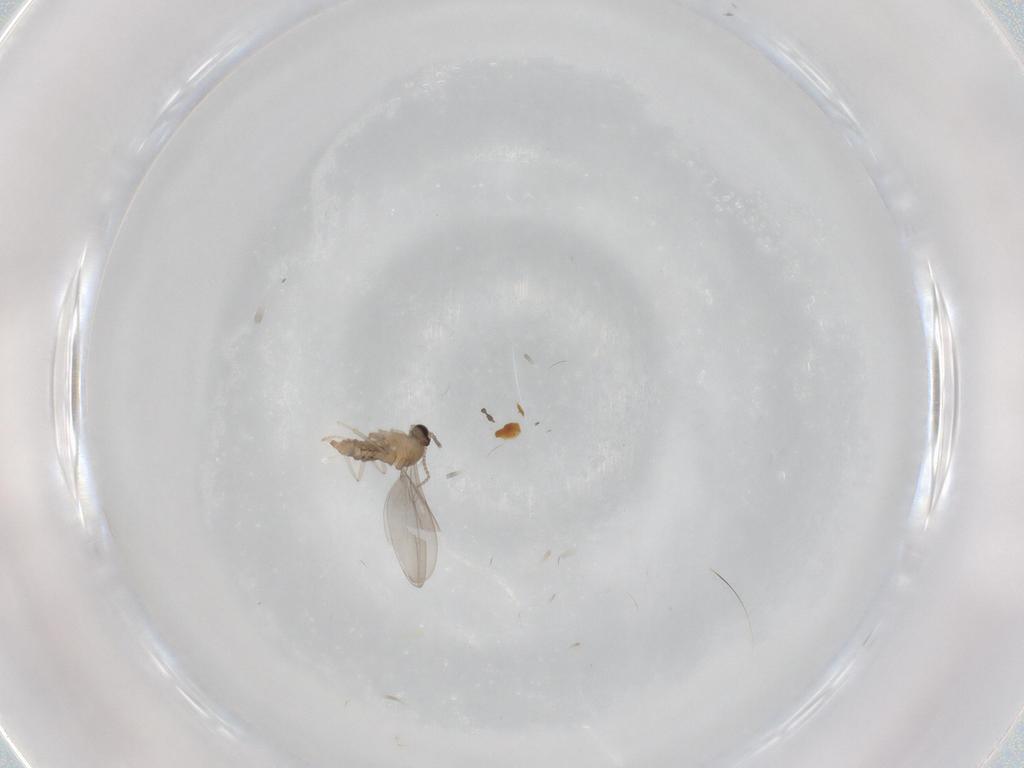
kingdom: Animalia
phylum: Arthropoda
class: Insecta
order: Diptera
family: Cecidomyiidae
